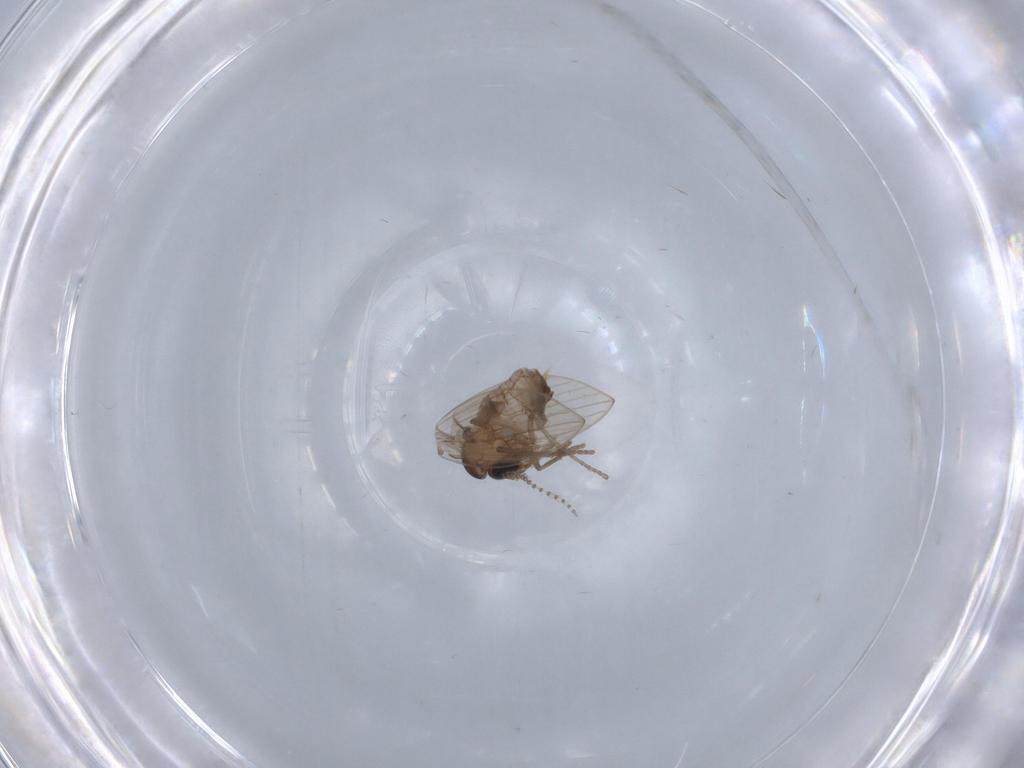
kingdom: Animalia
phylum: Arthropoda
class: Insecta
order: Diptera
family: Psychodidae
